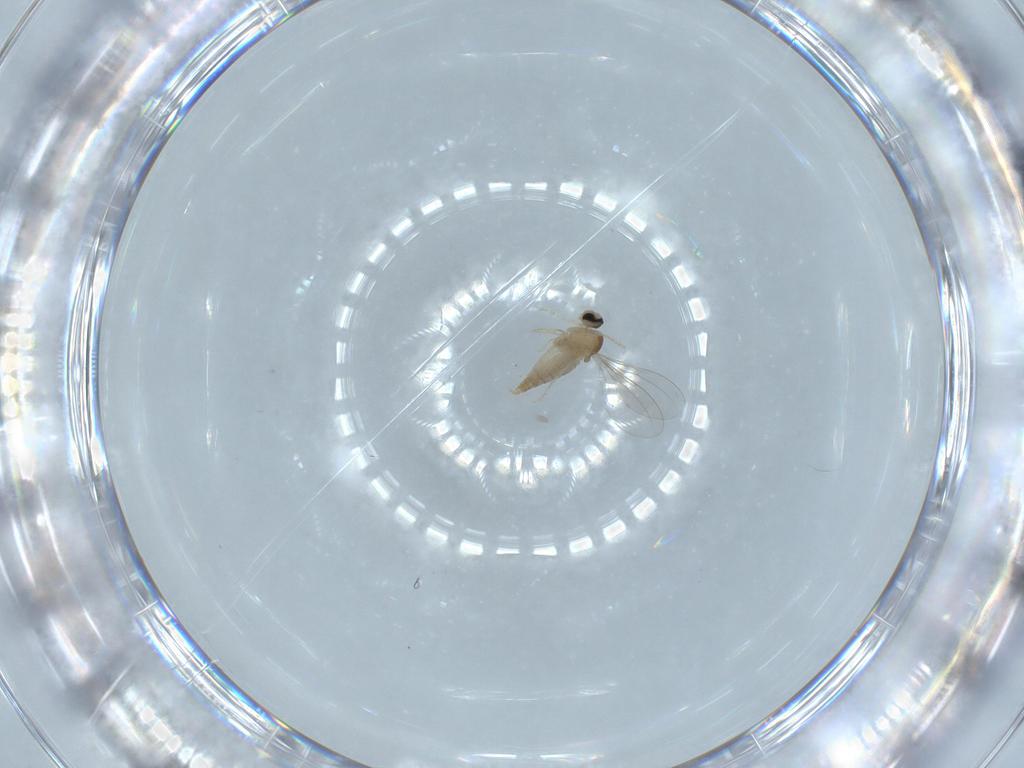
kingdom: Animalia
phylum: Arthropoda
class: Insecta
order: Diptera
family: Cecidomyiidae
